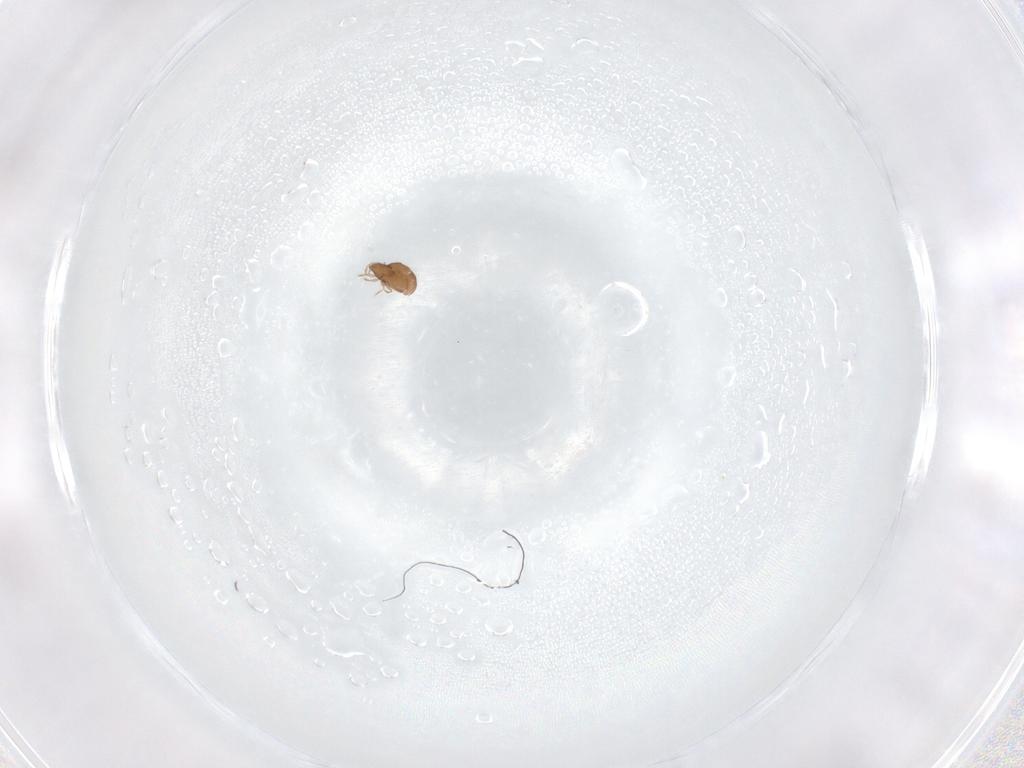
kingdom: Animalia
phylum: Arthropoda
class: Arachnida
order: Sarcoptiformes
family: Oribatulidae
